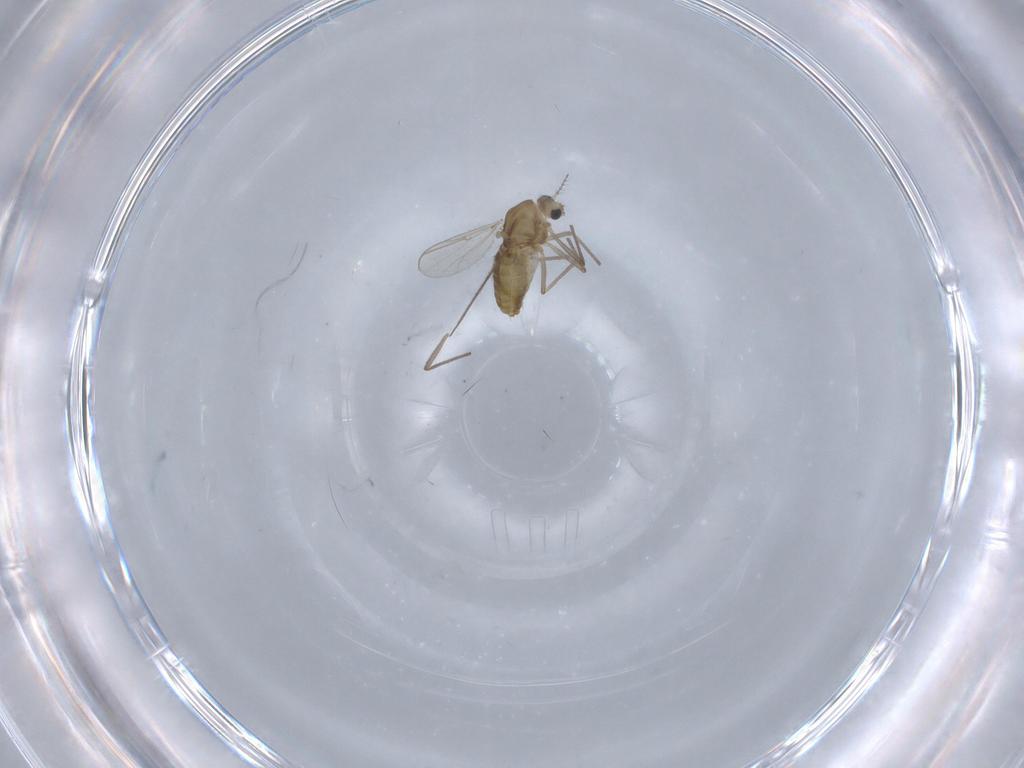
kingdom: Animalia
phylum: Arthropoda
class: Insecta
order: Diptera
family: Chironomidae
